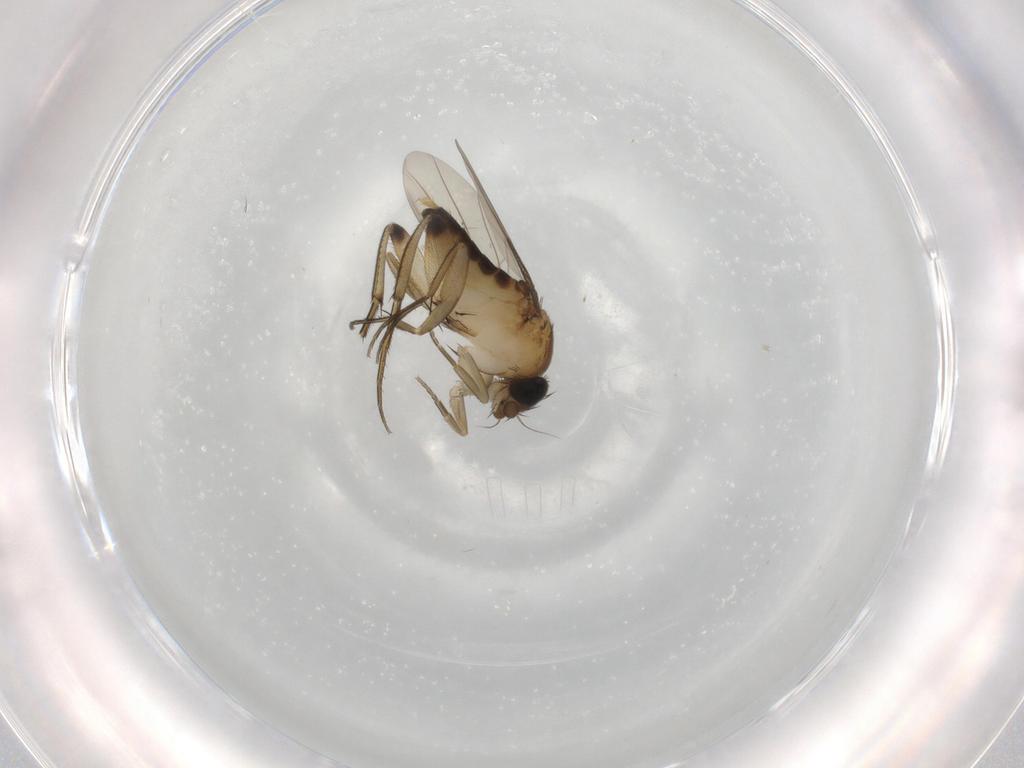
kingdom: Animalia
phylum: Arthropoda
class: Insecta
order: Diptera
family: Phoridae
